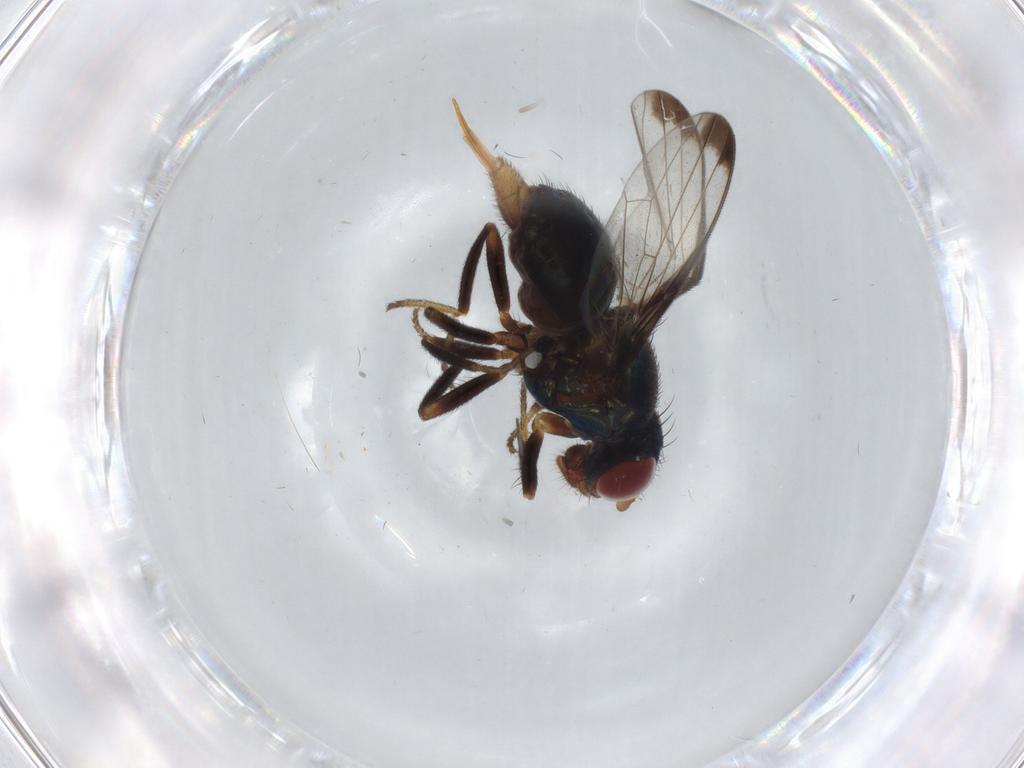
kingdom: Animalia
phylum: Arthropoda
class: Insecta
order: Diptera
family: Ulidiidae
